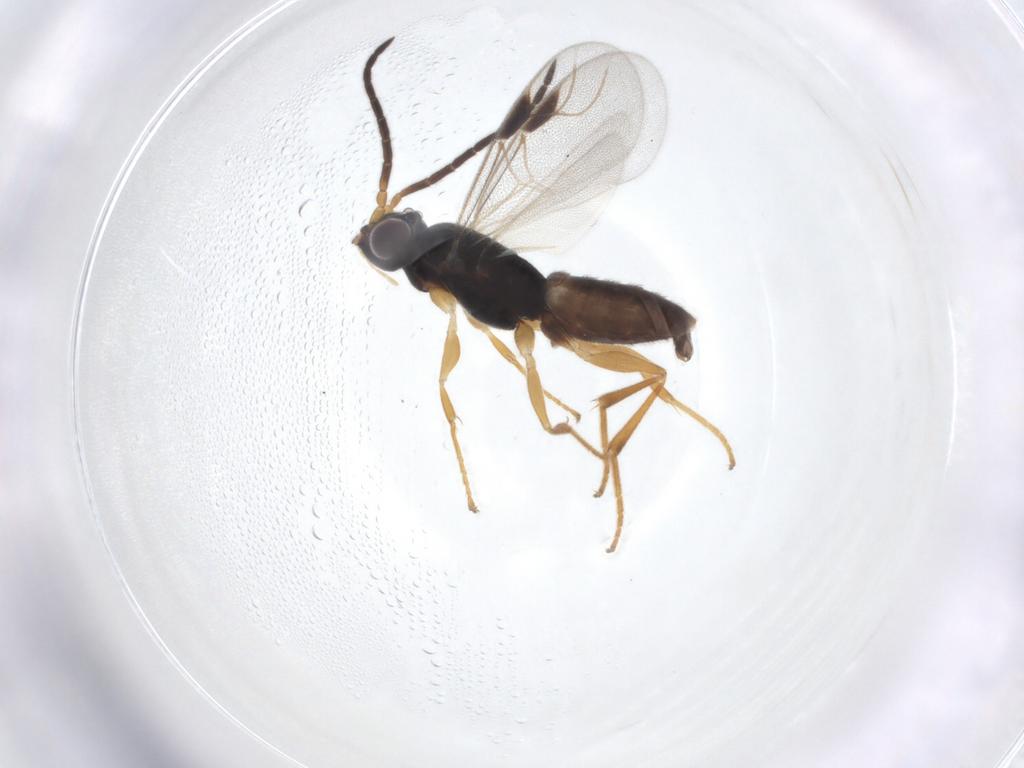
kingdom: Animalia
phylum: Arthropoda
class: Insecta
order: Hymenoptera
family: Dryinidae
